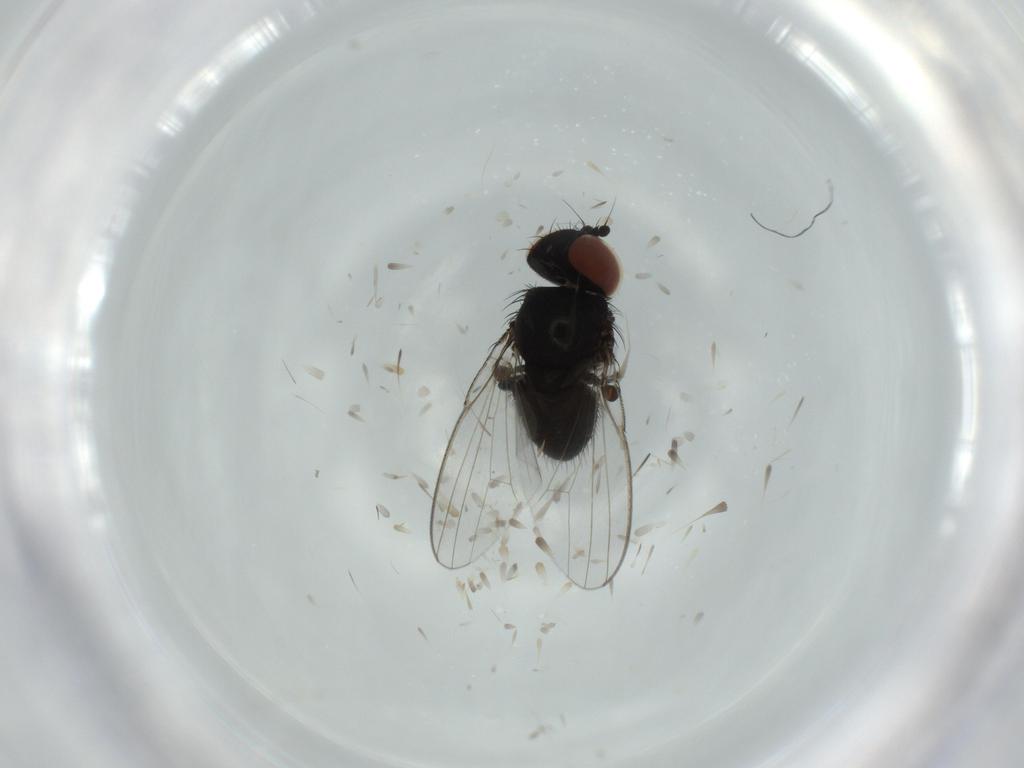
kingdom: Animalia
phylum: Arthropoda
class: Insecta
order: Diptera
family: Milichiidae
